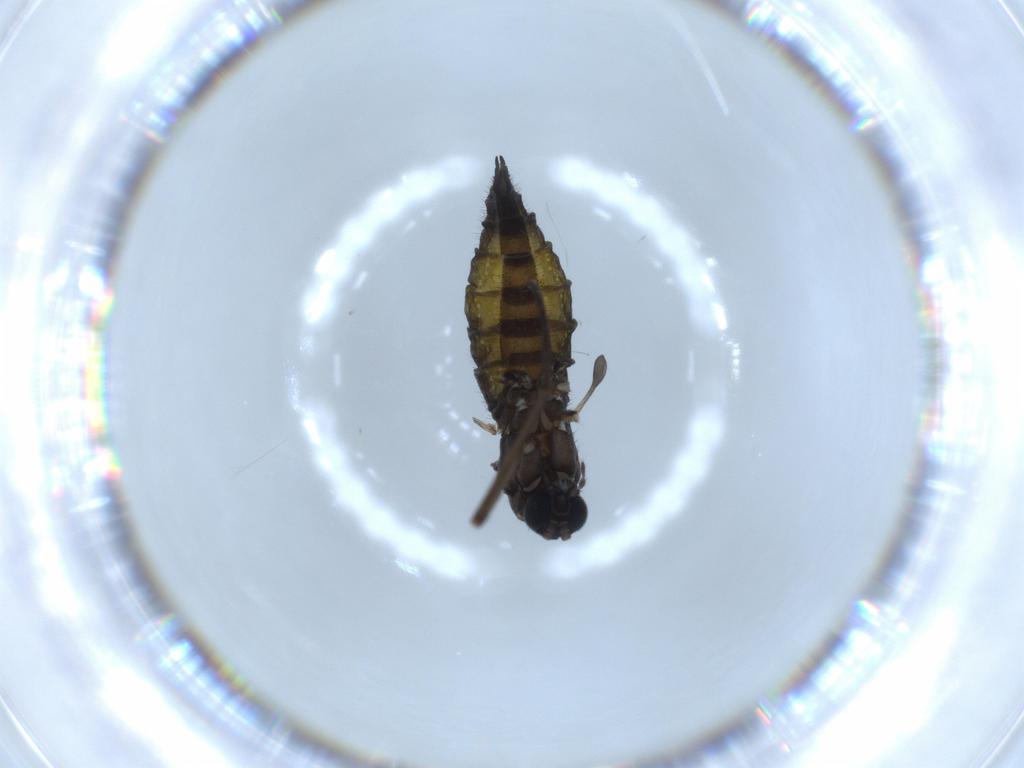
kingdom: Animalia
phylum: Arthropoda
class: Insecta
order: Diptera
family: Sciaridae
